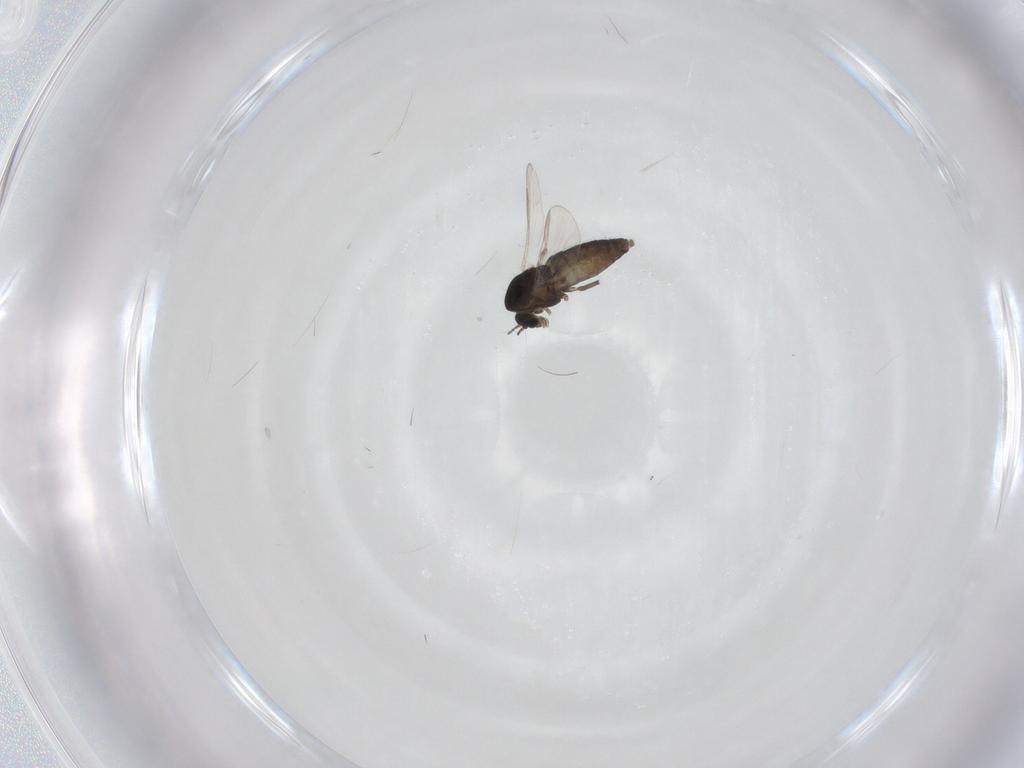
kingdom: Animalia
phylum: Arthropoda
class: Insecta
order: Diptera
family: Chironomidae
